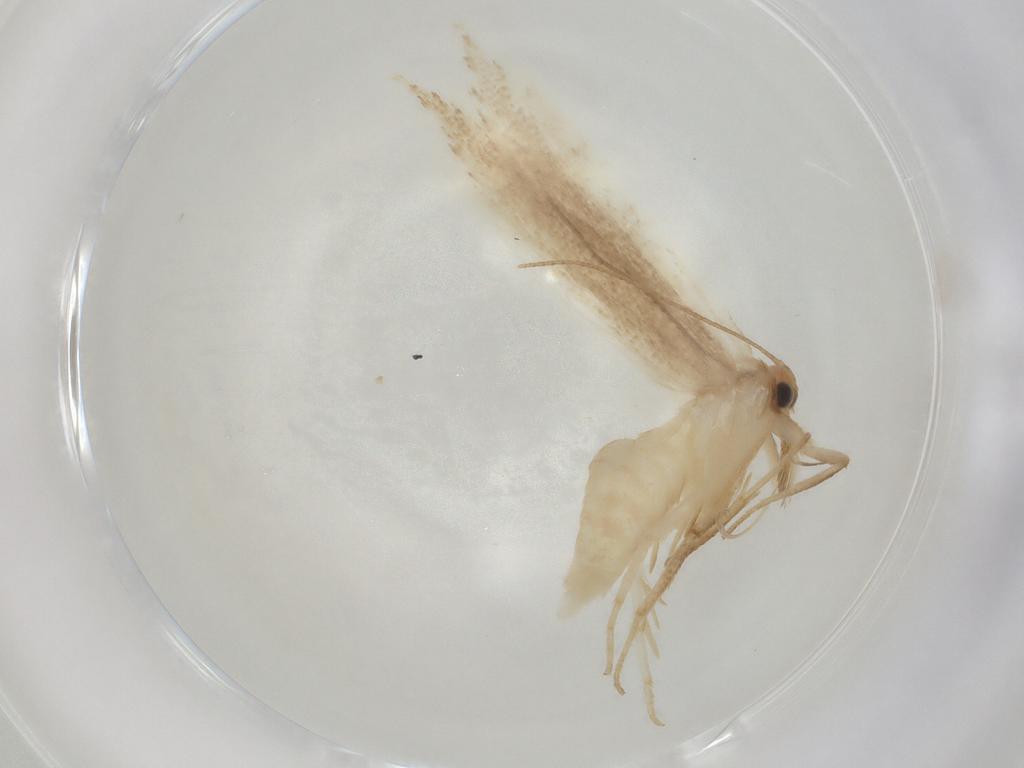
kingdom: Animalia
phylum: Arthropoda
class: Insecta
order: Lepidoptera
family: Gelechiidae
